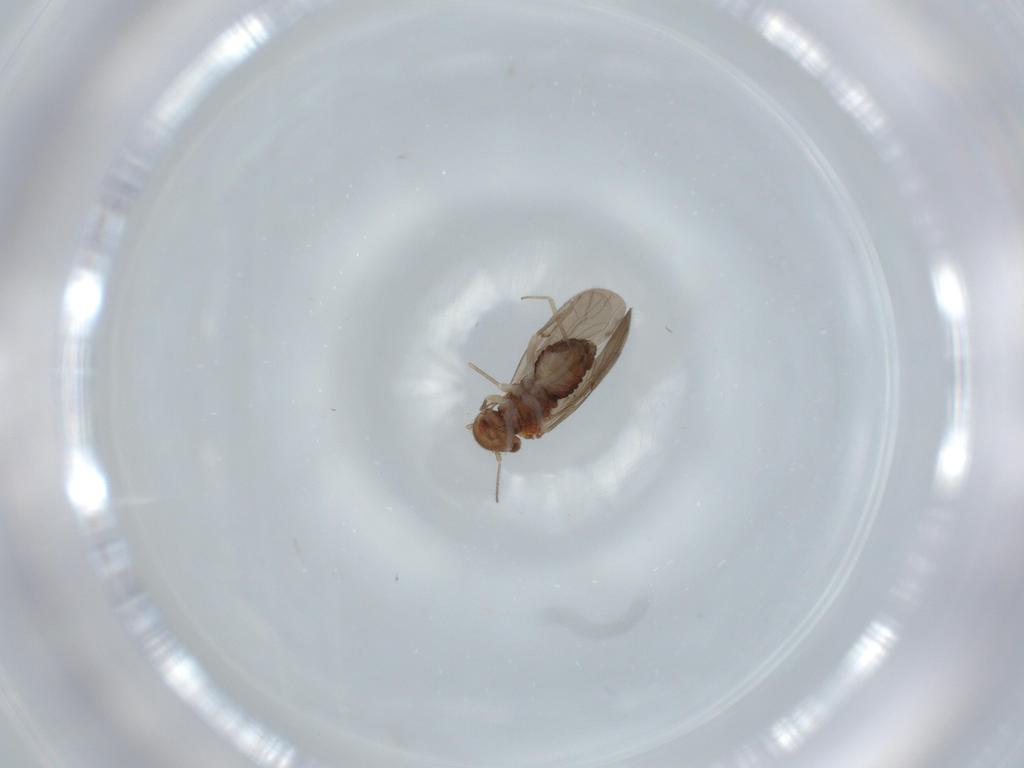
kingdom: Animalia
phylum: Arthropoda
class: Insecta
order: Psocodea
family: Ectopsocidae
